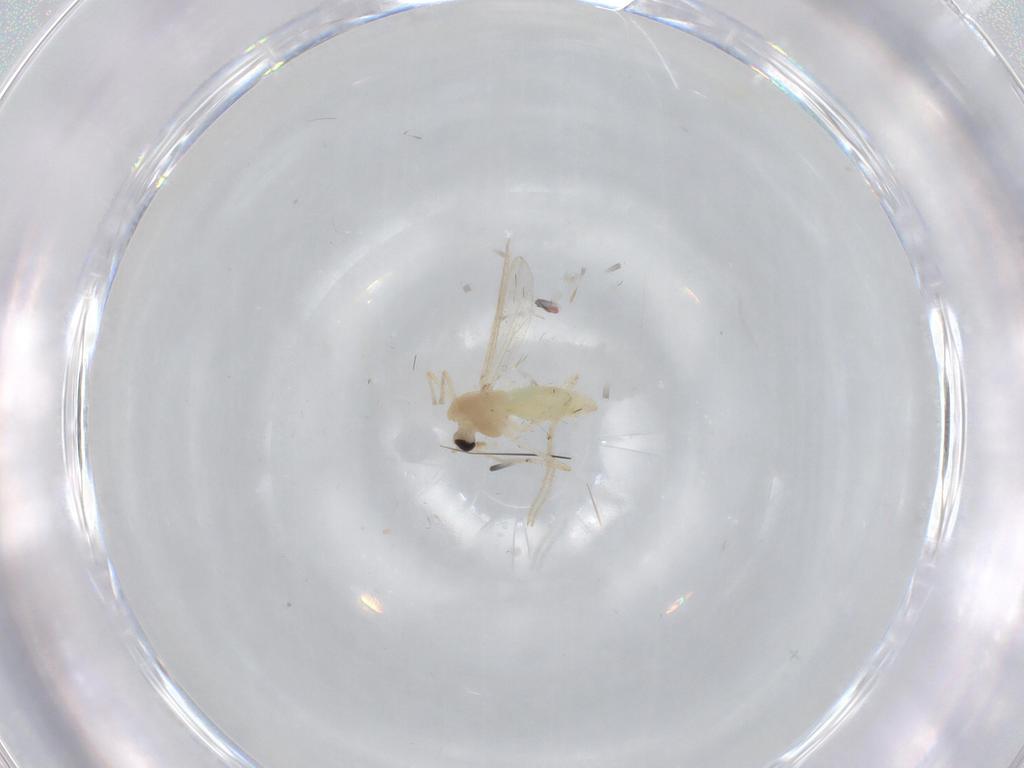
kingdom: Animalia
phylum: Arthropoda
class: Insecta
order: Diptera
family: Chironomidae
